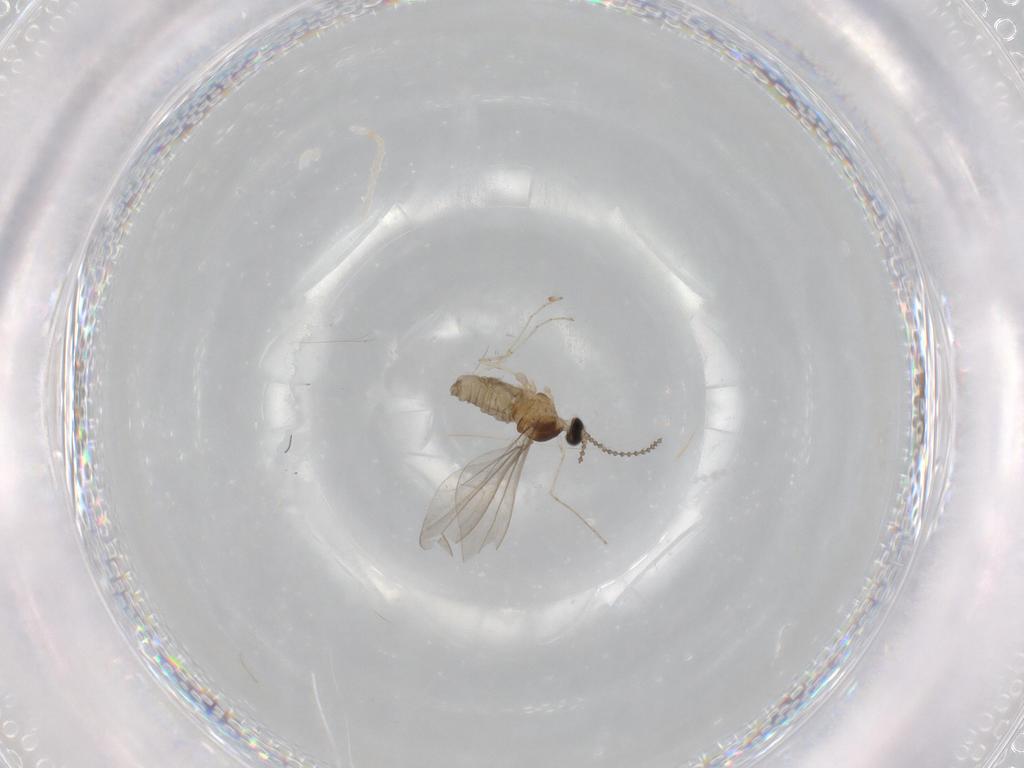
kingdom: Animalia
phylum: Arthropoda
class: Insecta
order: Diptera
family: Cecidomyiidae
